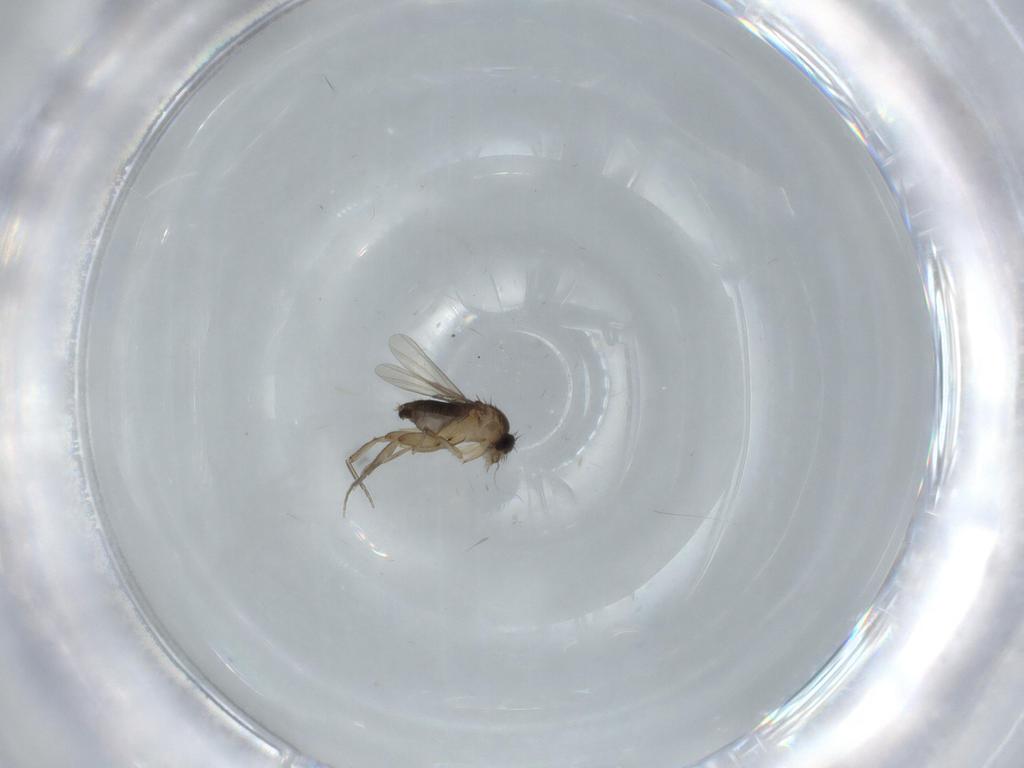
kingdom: Animalia
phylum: Arthropoda
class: Insecta
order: Diptera
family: Phoridae
